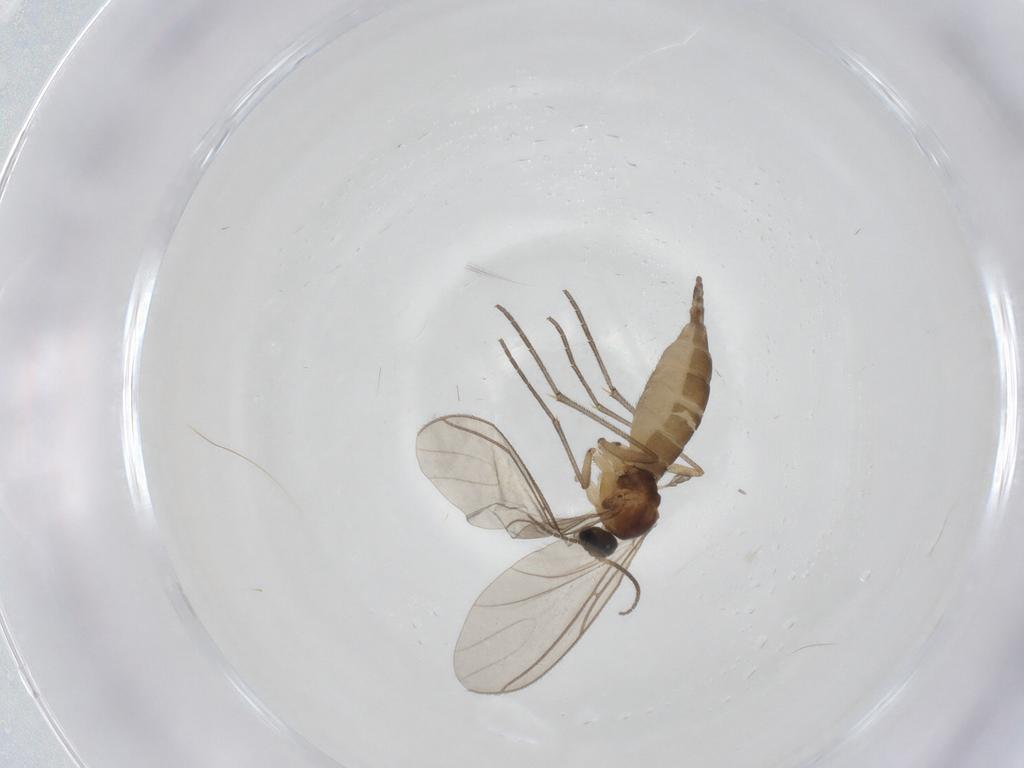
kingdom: Animalia
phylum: Arthropoda
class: Insecta
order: Diptera
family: Sciaridae
